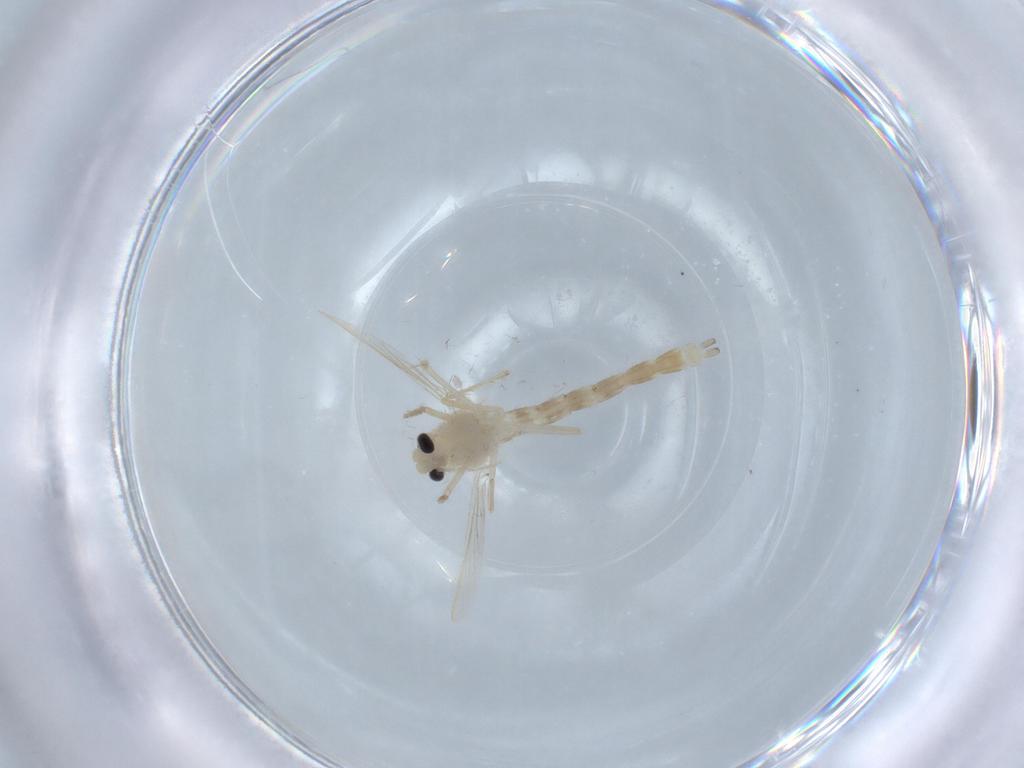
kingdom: Animalia
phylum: Arthropoda
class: Insecta
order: Diptera
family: Chironomidae
